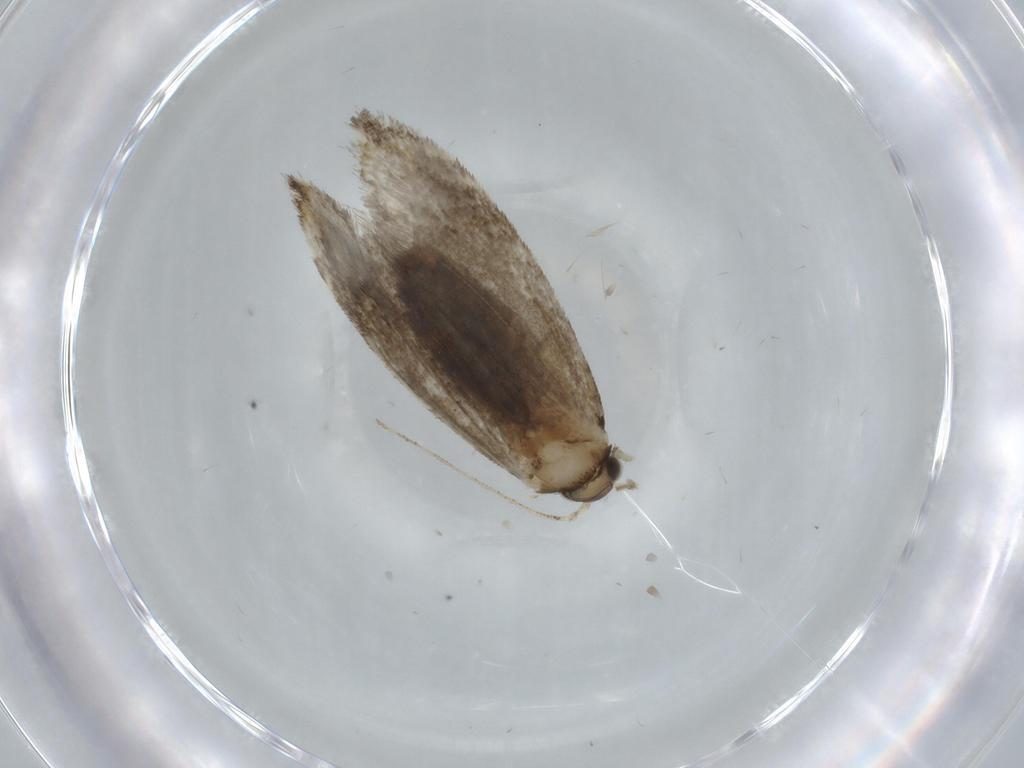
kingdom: Animalia
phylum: Arthropoda
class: Insecta
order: Lepidoptera
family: Tineidae
